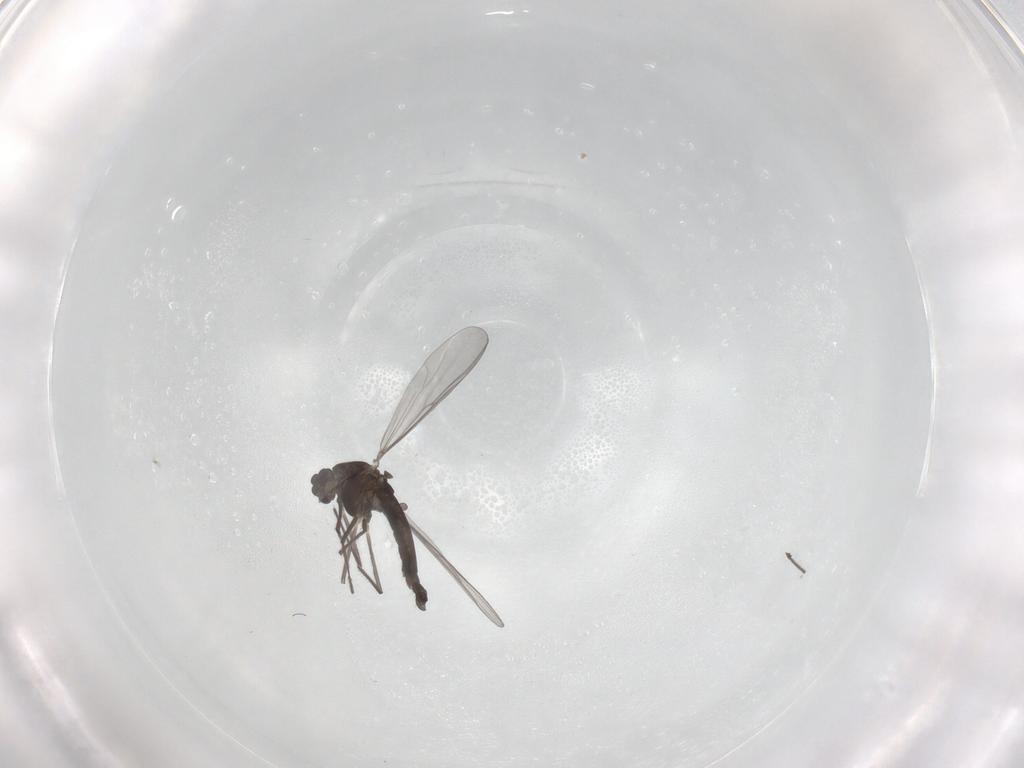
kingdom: Animalia
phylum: Arthropoda
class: Insecta
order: Diptera
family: Chironomidae
